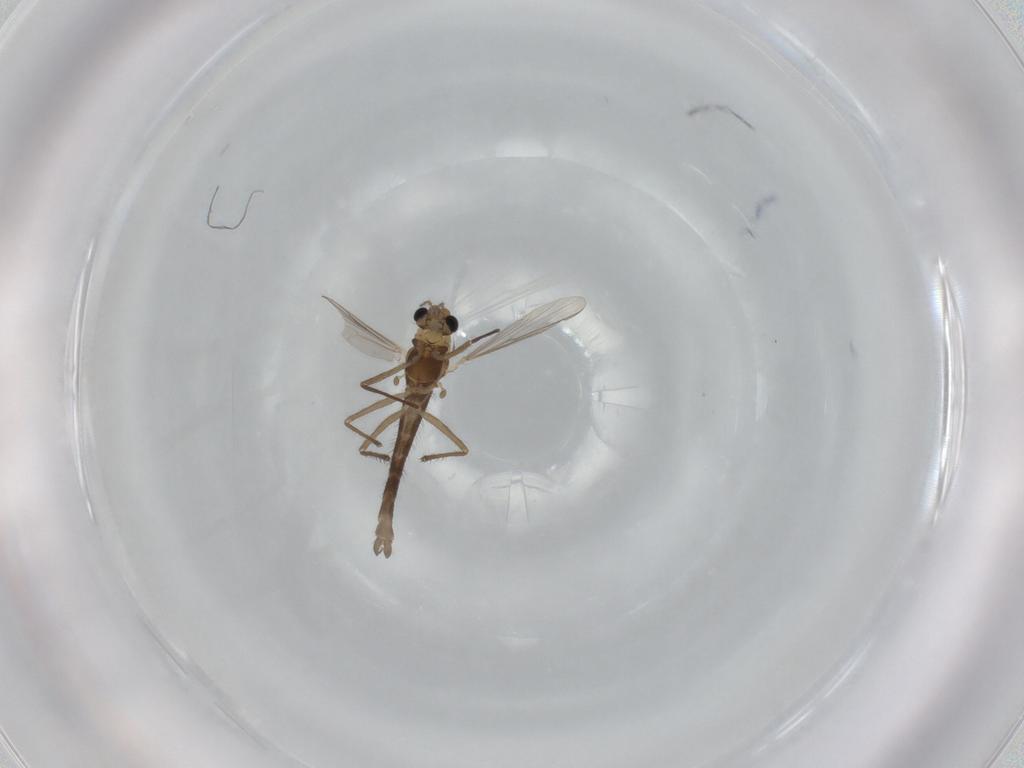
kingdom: Animalia
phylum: Arthropoda
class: Insecta
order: Diptera
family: Chironomidae
